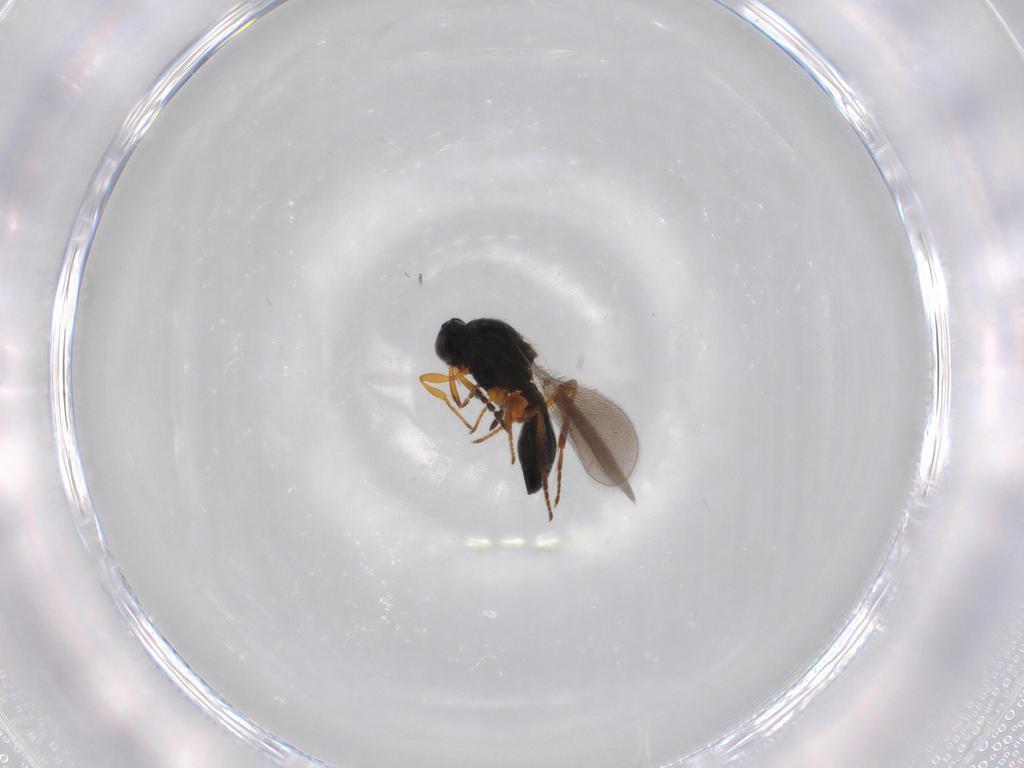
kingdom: Animalia
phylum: Arthropoda
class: Insecta
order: Hymenoptera
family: Platygastridae
